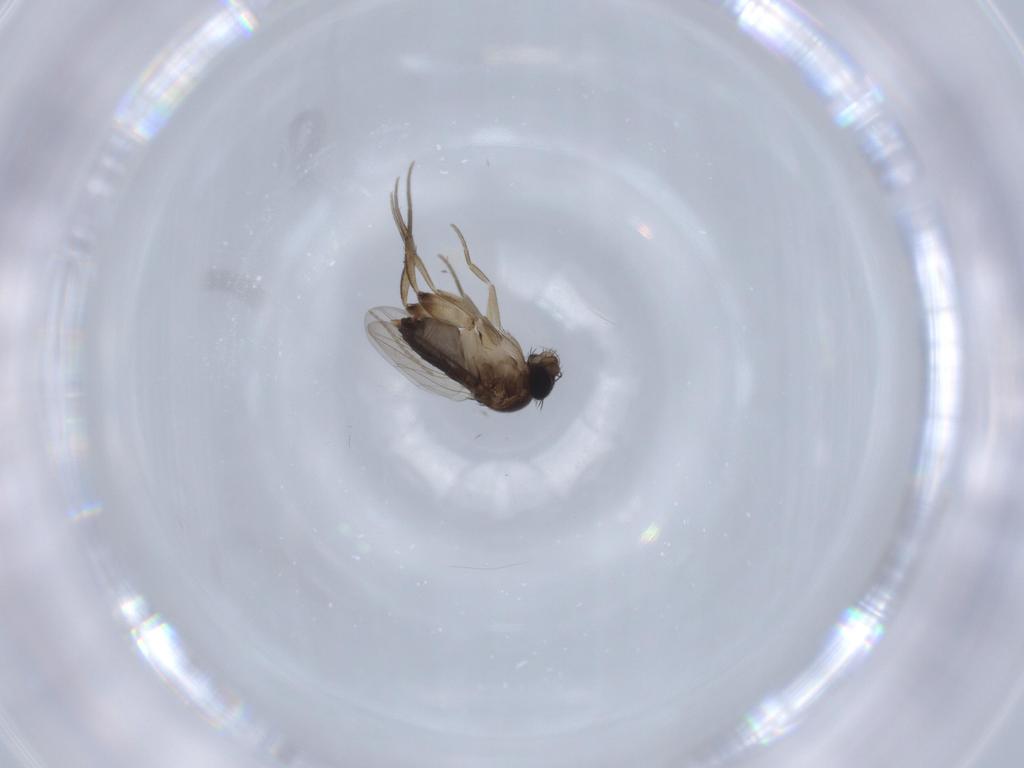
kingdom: Animalia
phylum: Arthropoda
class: Insecta
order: Diptera
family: Phoridae
